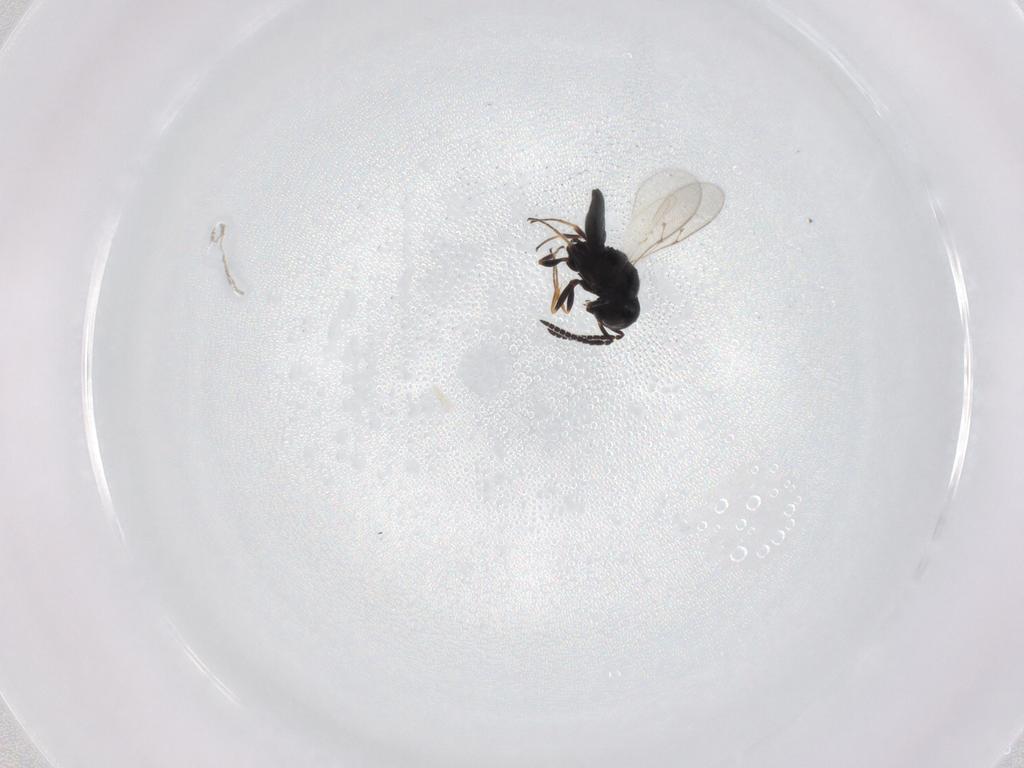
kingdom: Animalia
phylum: Arthropoda
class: Insecta
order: Hymenoptera
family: Scelionidae
